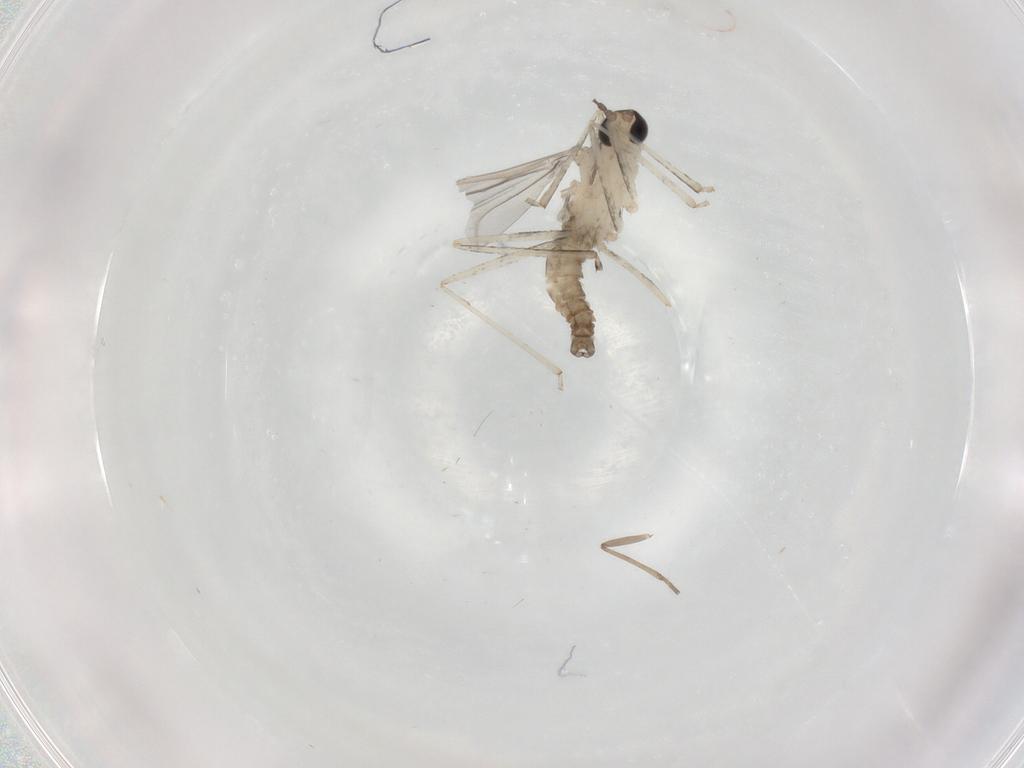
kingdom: Animalia
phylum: Arthropoda
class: Insecta
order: Diptera
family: Cecidomyiidae
